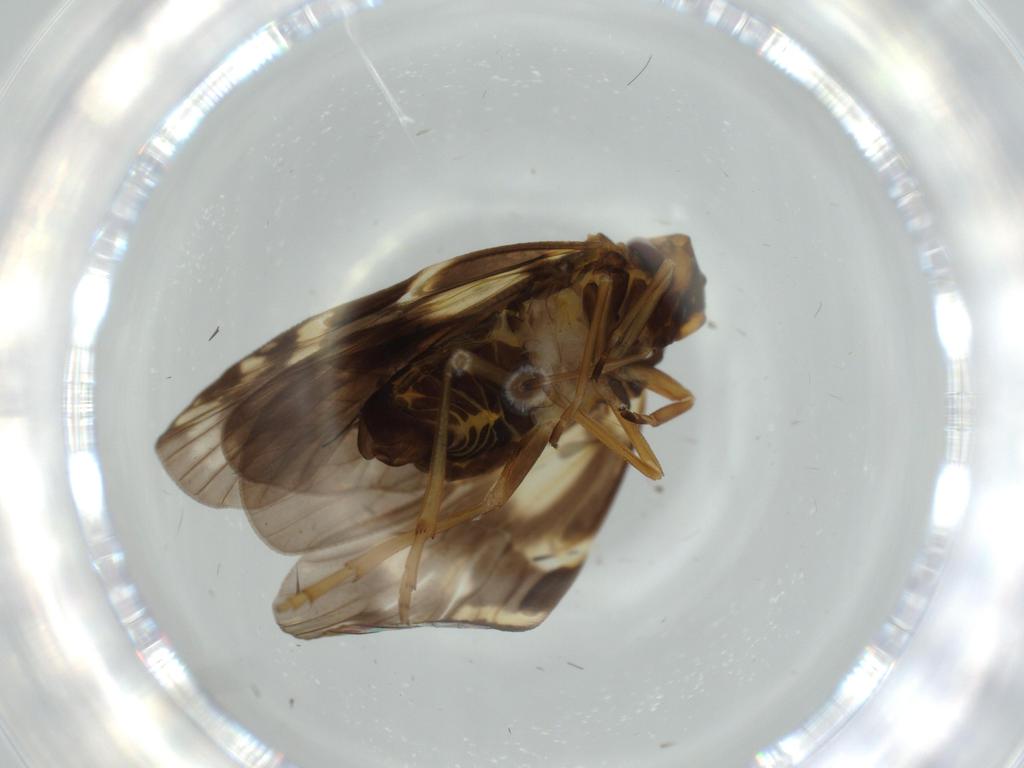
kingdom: Animalia
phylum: Arthropoda
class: Insecta
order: Hemiptera
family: Cixiidae
